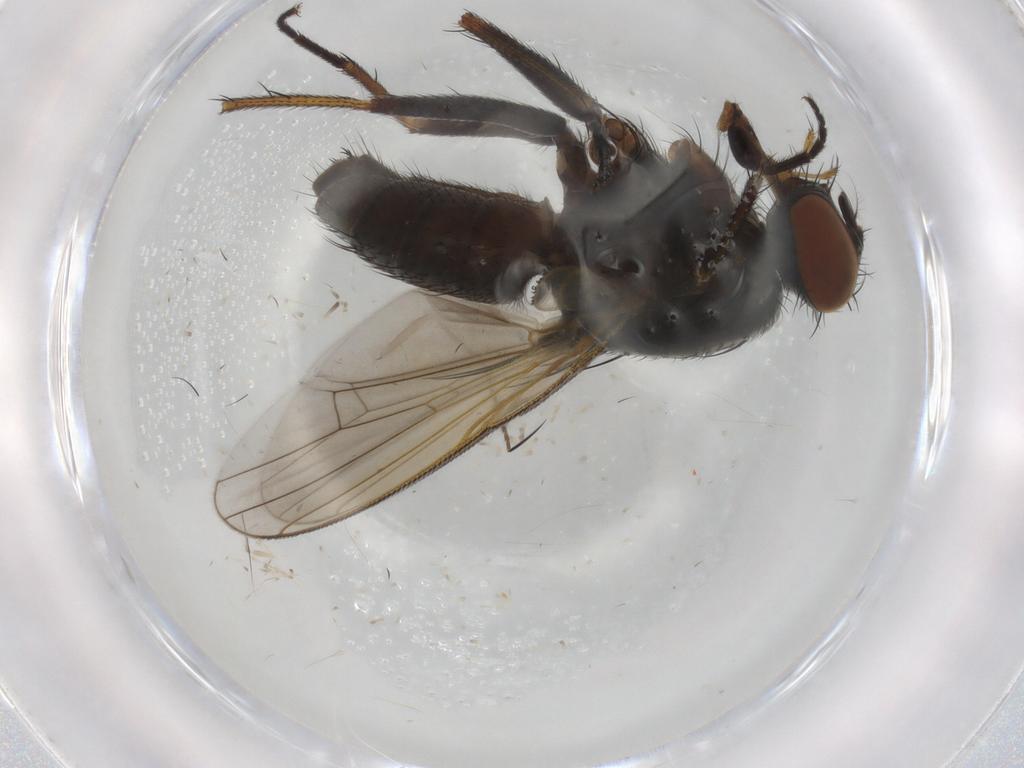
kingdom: Animalia
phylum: Arthropoda
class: Insecta
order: Diptera
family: Muscidae
